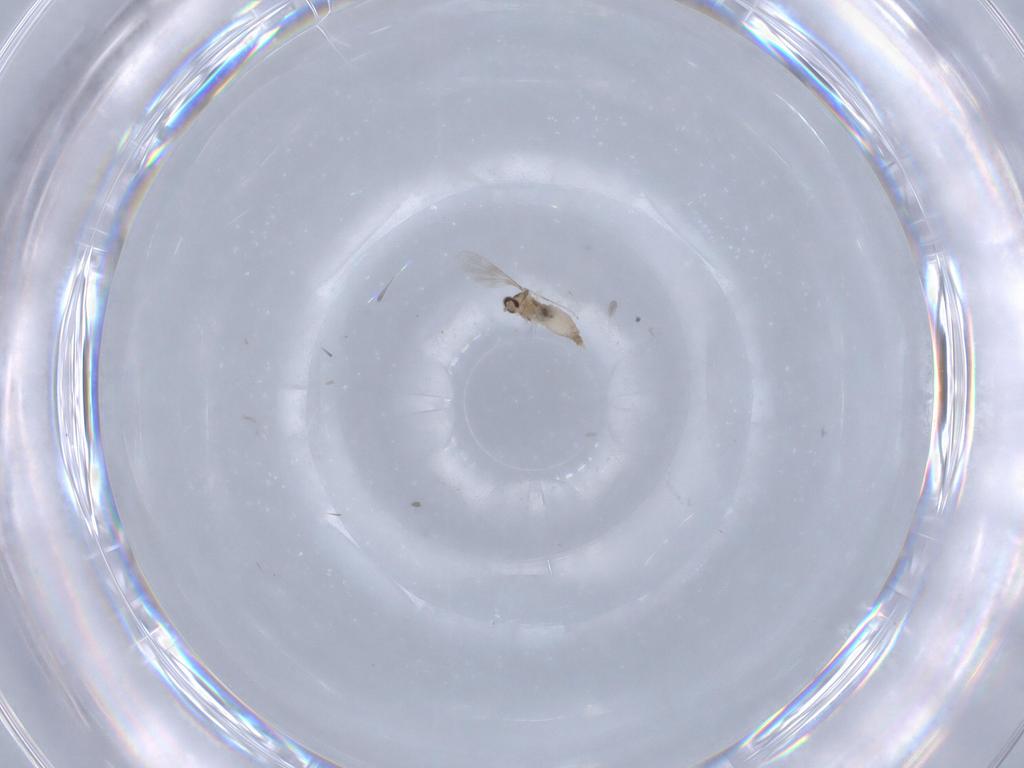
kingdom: Animalia
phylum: Arthropoda
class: Insecta
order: Diptera
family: Cecidomyiidae
